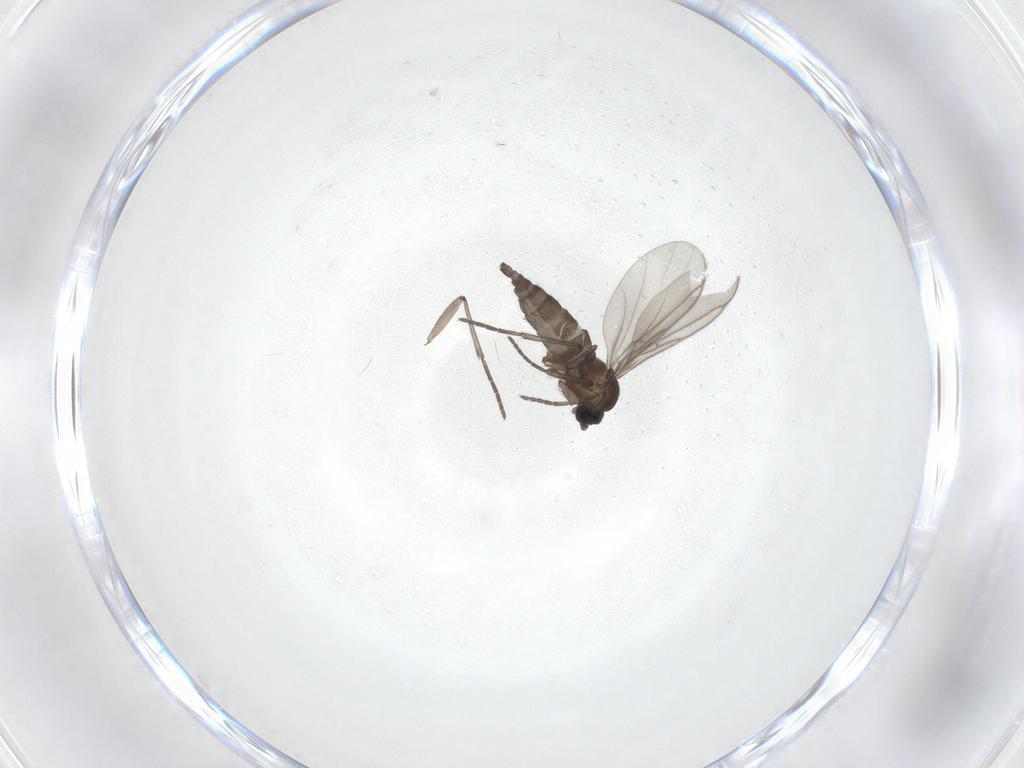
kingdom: Animalia
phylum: Arthropoda
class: Insecta
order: Diptera
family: Sciaridae
